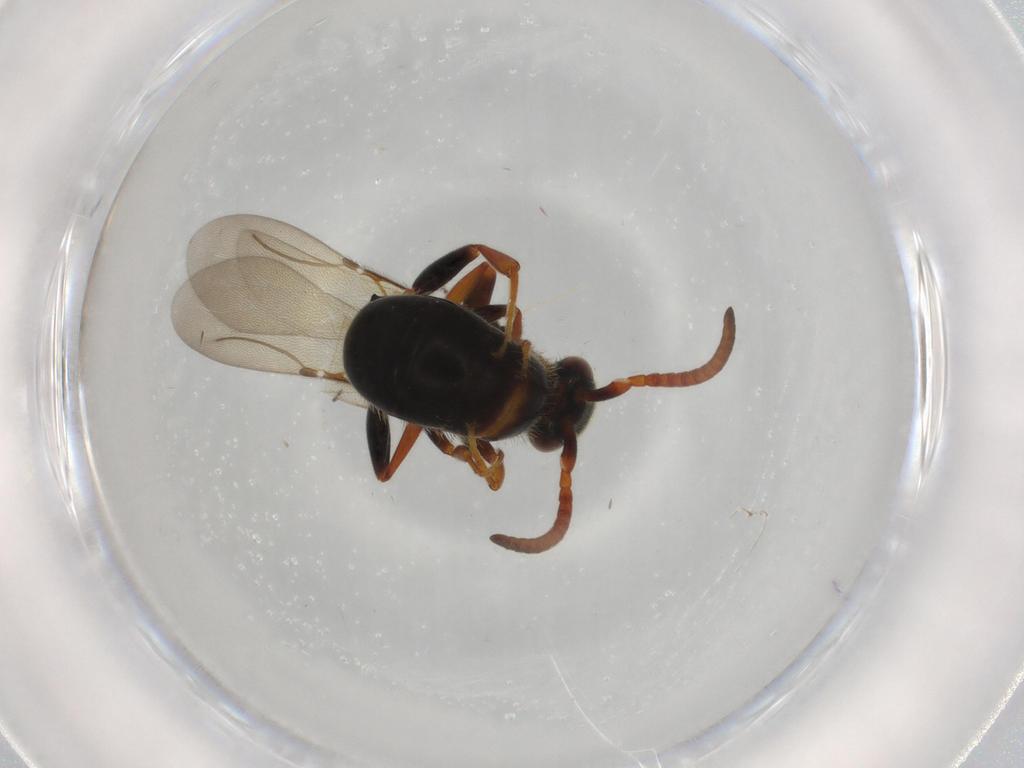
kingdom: Animalia
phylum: Arthropoda
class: Insecta
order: Hymenoptera
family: Bethylidae
